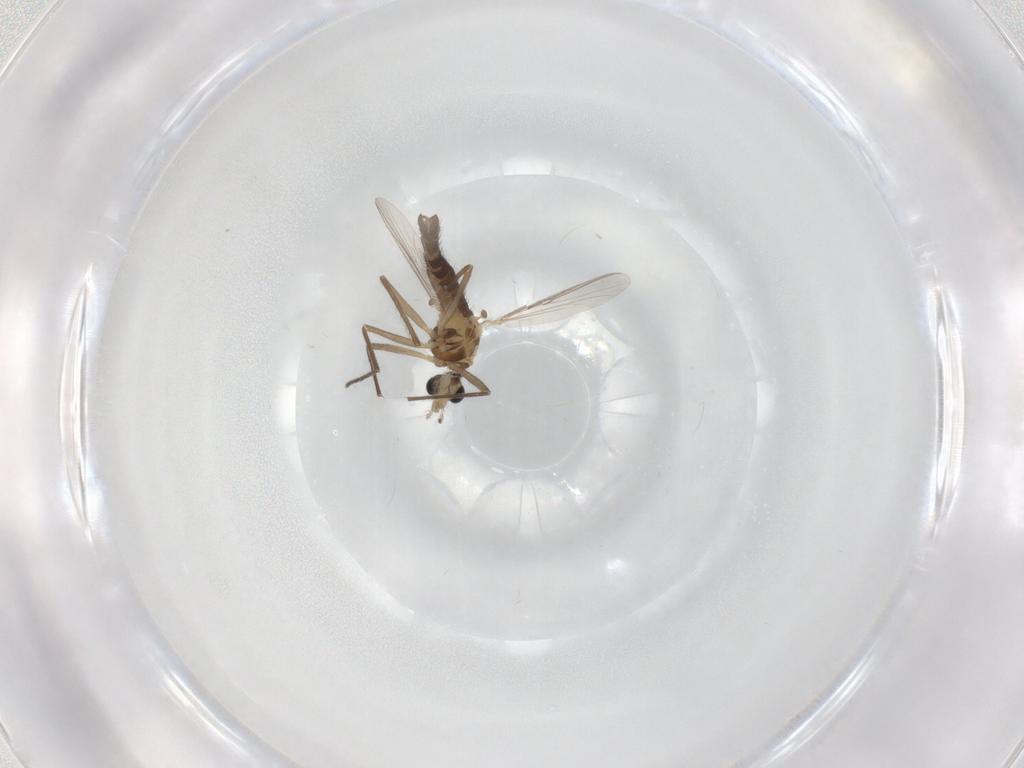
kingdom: Animalia
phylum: Arthropoda
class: Insecta
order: Diptera
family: Chironomidae
